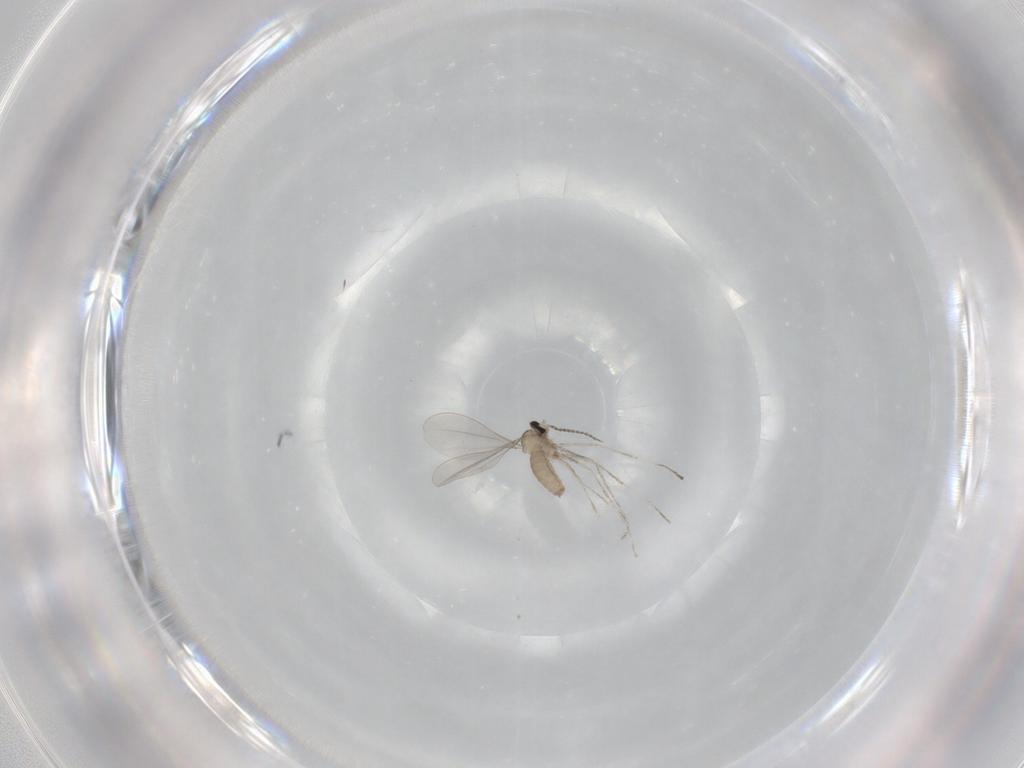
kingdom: Animalia
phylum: Arthropoda
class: Insecta
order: Diptera
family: Cecidomyiidae
